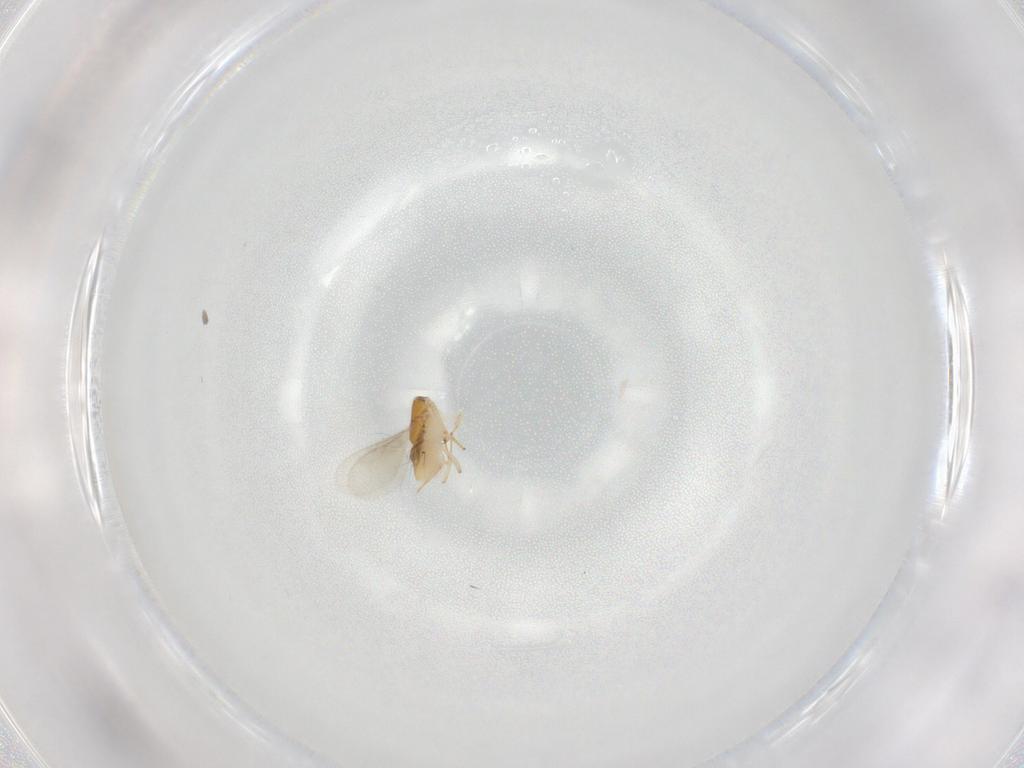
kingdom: Animalia
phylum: Arthropoda
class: Insecta
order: Hymenoptera
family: Encyrtidae
